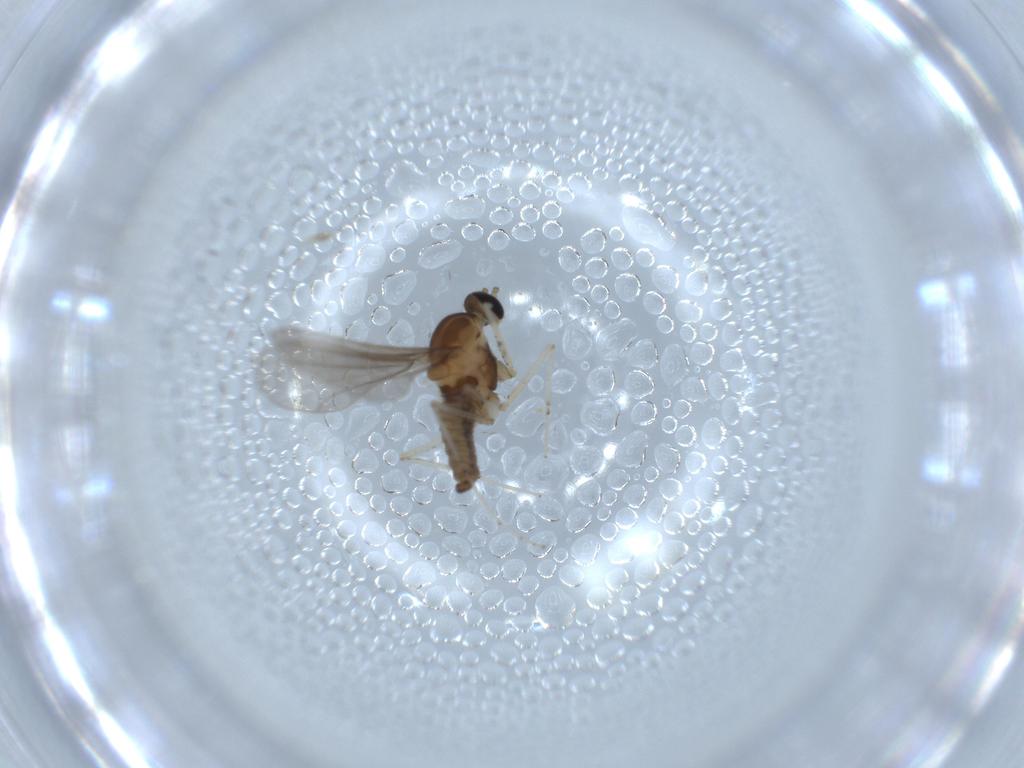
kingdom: Animalia
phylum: Arthropoda
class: Insecta
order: Diptera
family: Cecidomyiidae
